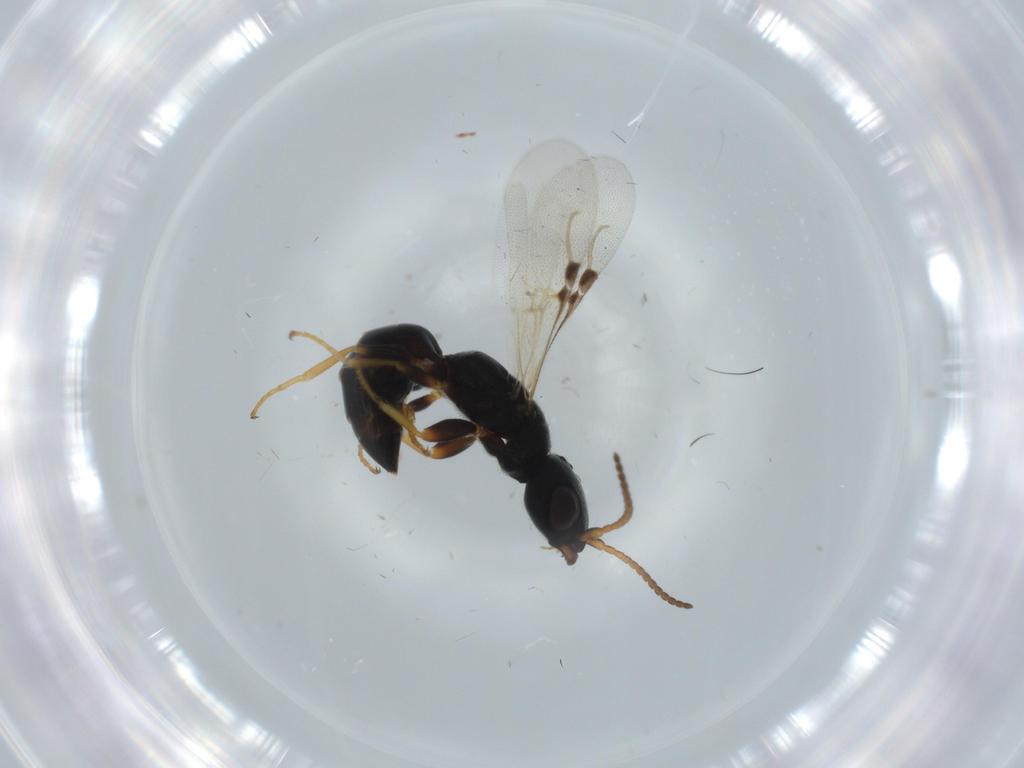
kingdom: Animalia
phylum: Arthropoda
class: Insecta
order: Hymenoptera
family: Bethylidae
